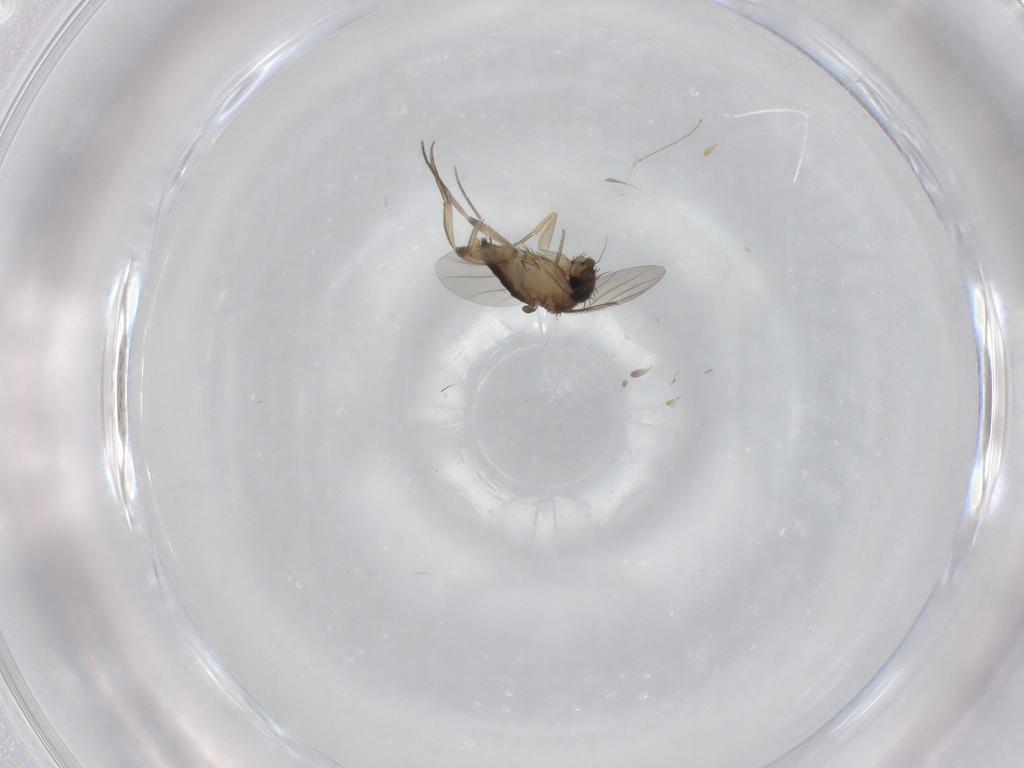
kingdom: Animalia
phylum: Arthropoda
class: Insecta
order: Diptera
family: Phoridae
